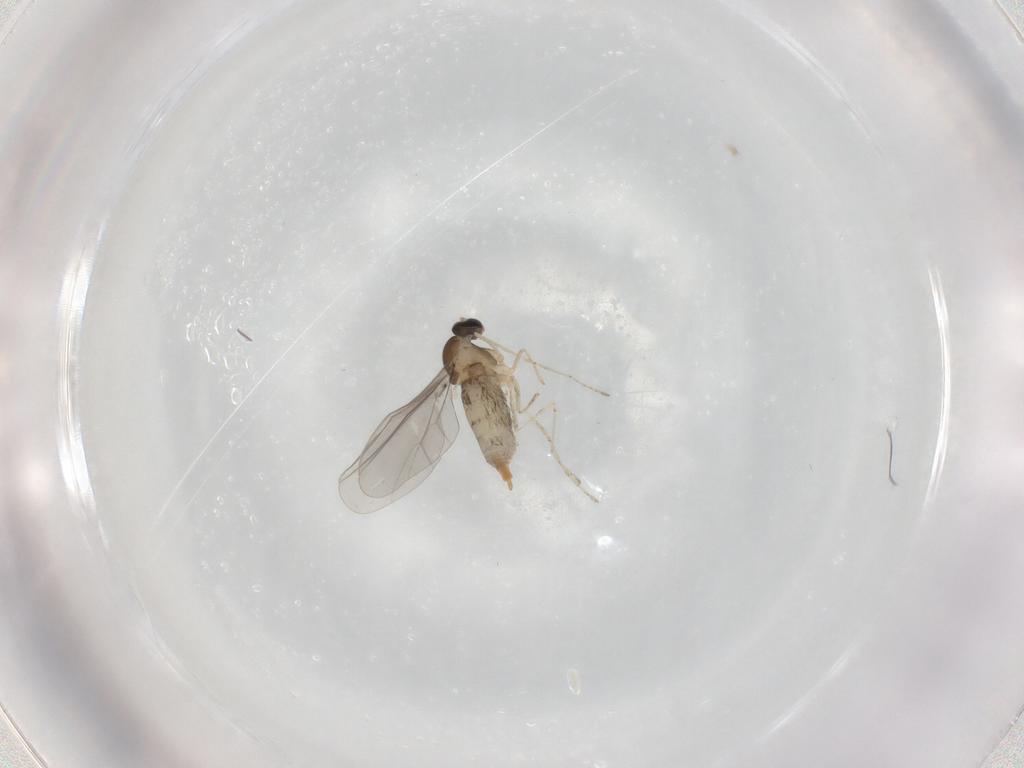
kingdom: Animalia
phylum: Arthropoda
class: Insecta
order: Diptera
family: Cecidomyiidae
